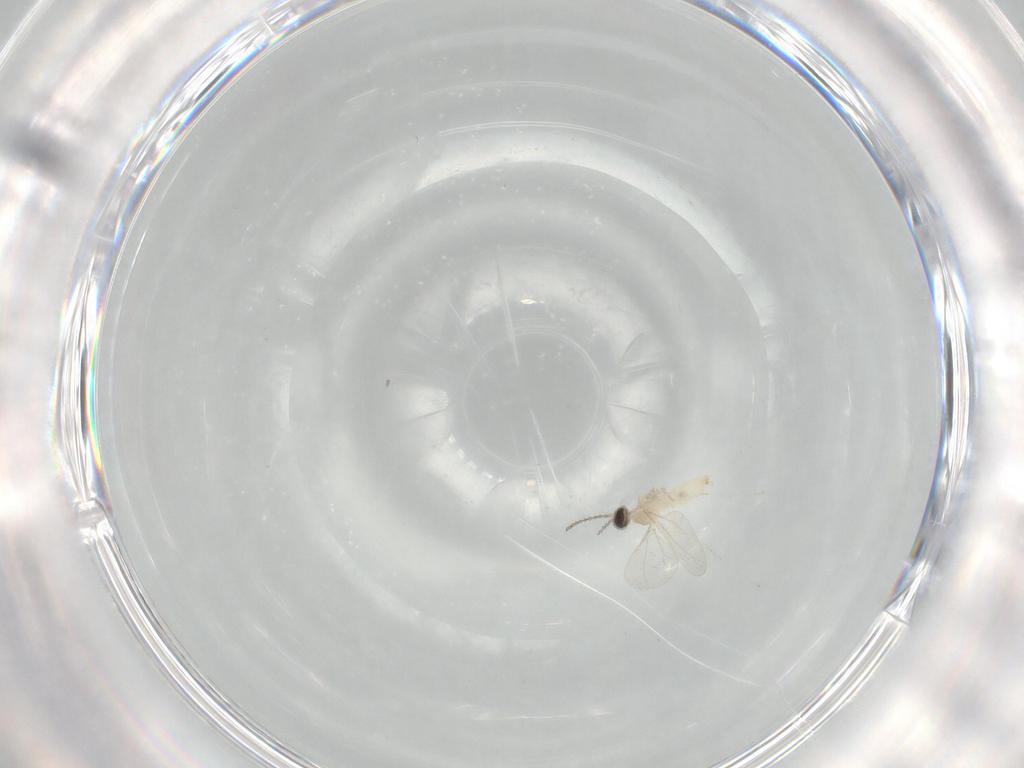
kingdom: Animalia
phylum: Arthropoda
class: Insecta
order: Diptera
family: Cecidomyiidae
